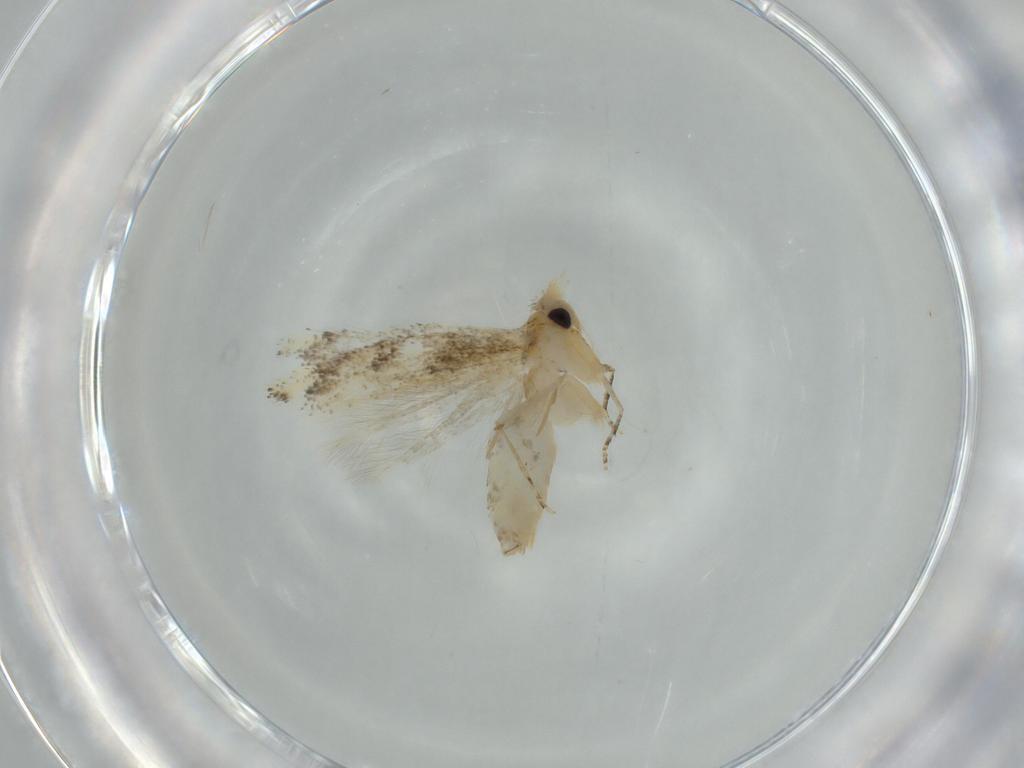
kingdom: Animalia
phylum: Arthropoda
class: Insecta
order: Lepidoptera
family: Bucculatricidae
